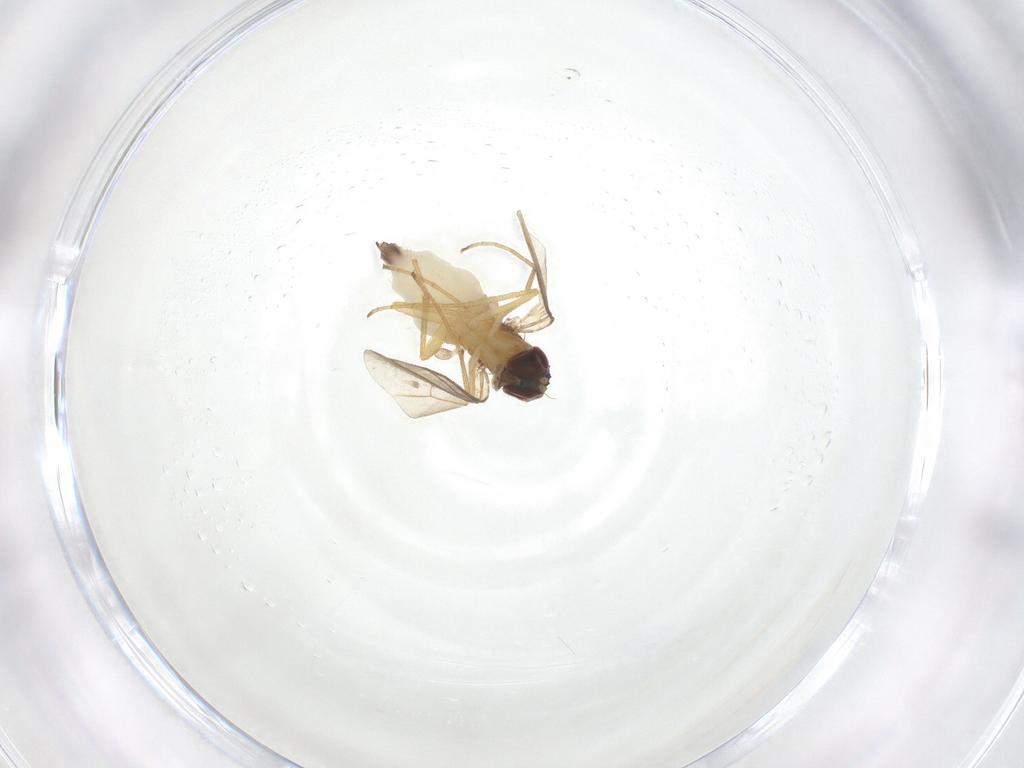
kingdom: Animalia
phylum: Arthropoda
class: Insecta
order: Diptera
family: Dolichopodidae
